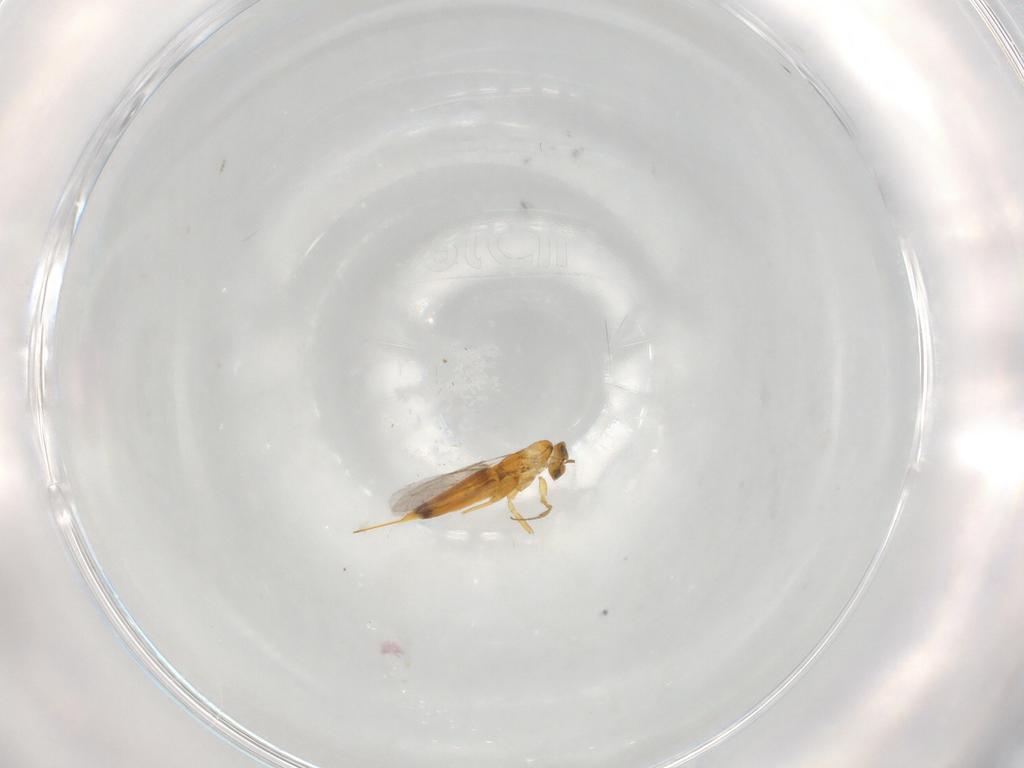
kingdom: Animalia
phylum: Arthropoda
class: Insecta
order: Hymenoptera
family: Aphelinidae
